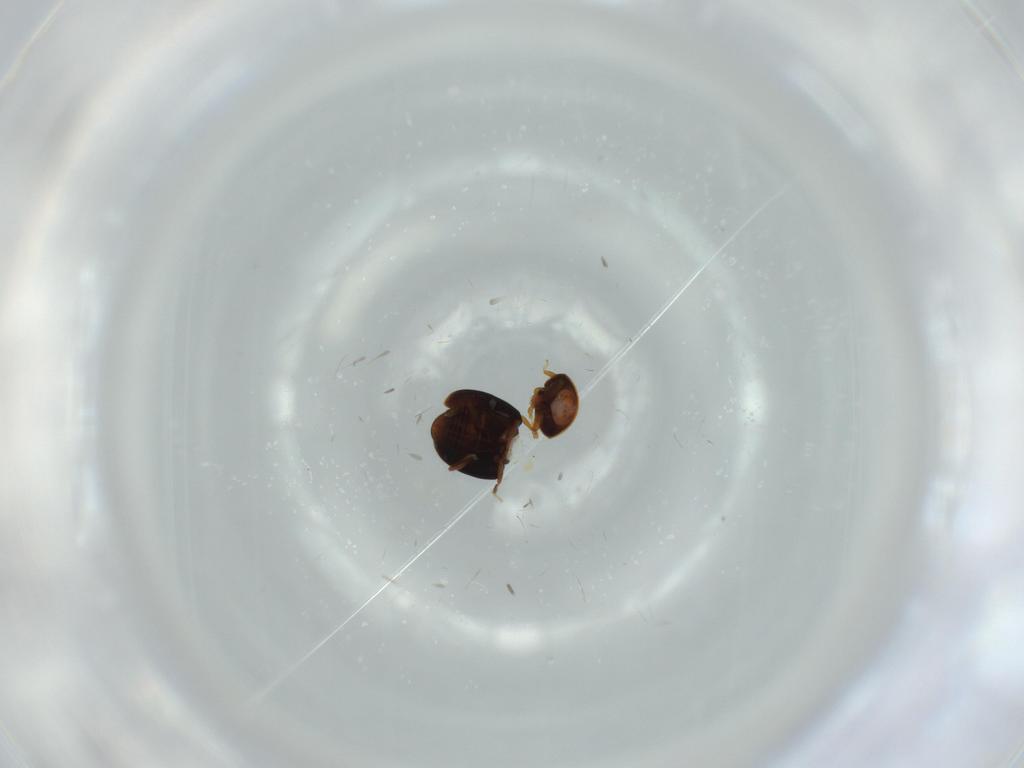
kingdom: Animalia
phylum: Arthropoda
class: Insecta
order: Coleoptera
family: Corylophidae
